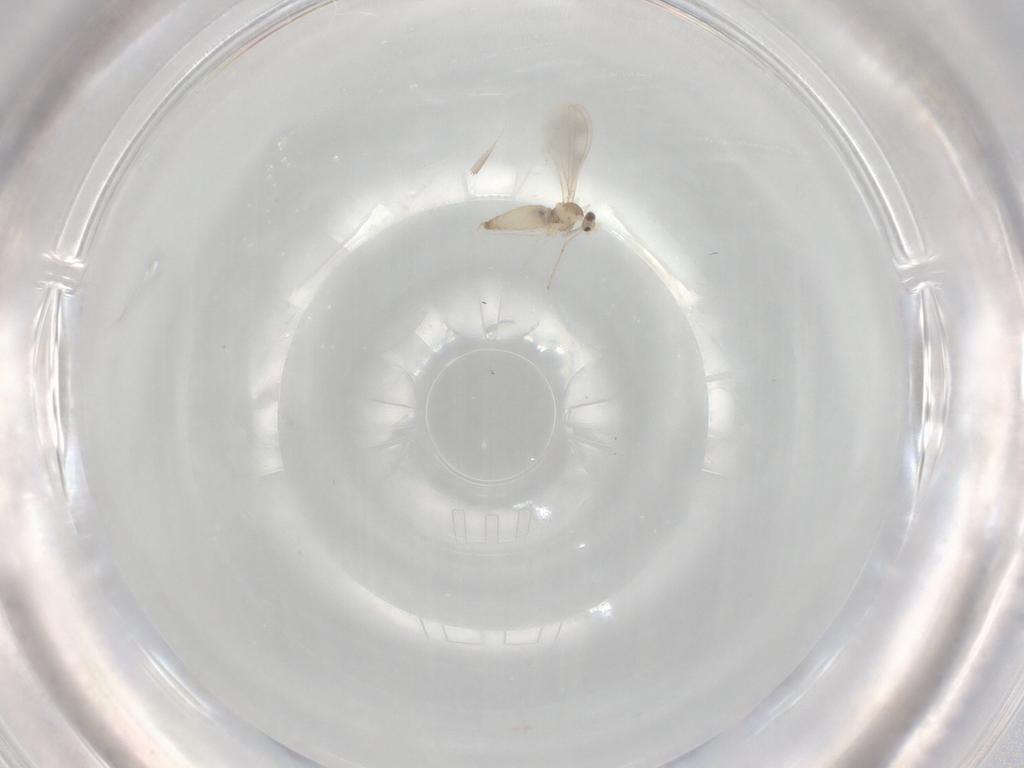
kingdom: Animalia
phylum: Arthropoda
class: Insecta
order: Diptera
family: Cecidomyiidae
